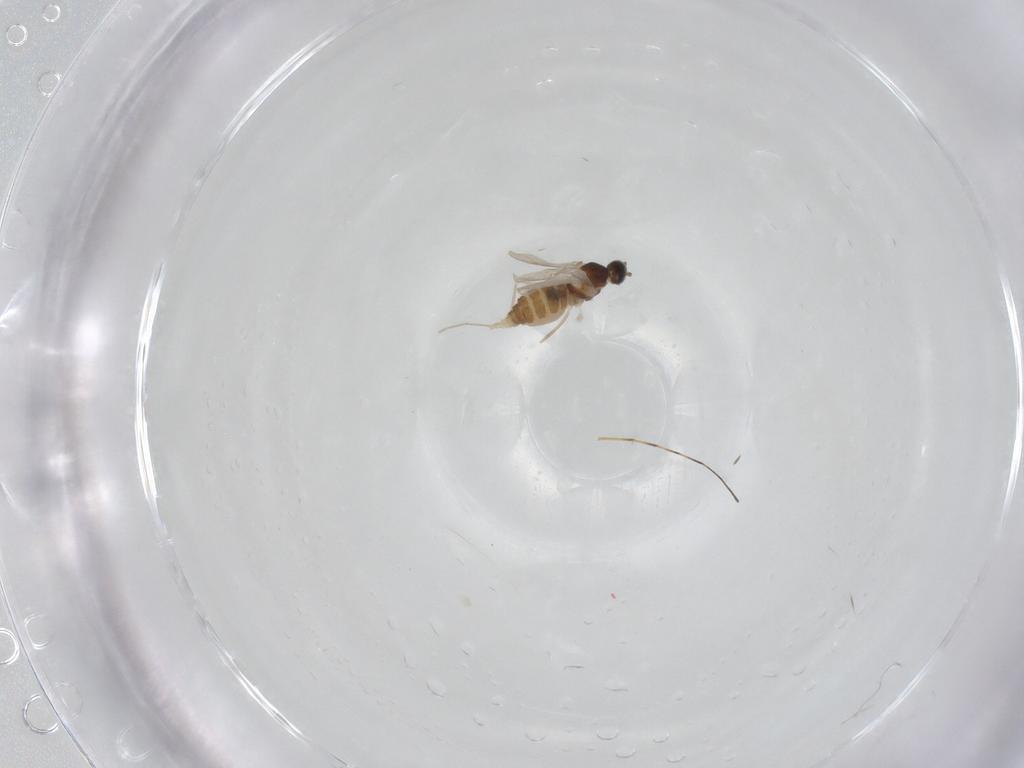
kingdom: Animalia
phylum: Arthropoda
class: Insecta
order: Diptera
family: Cecidomyiidae
